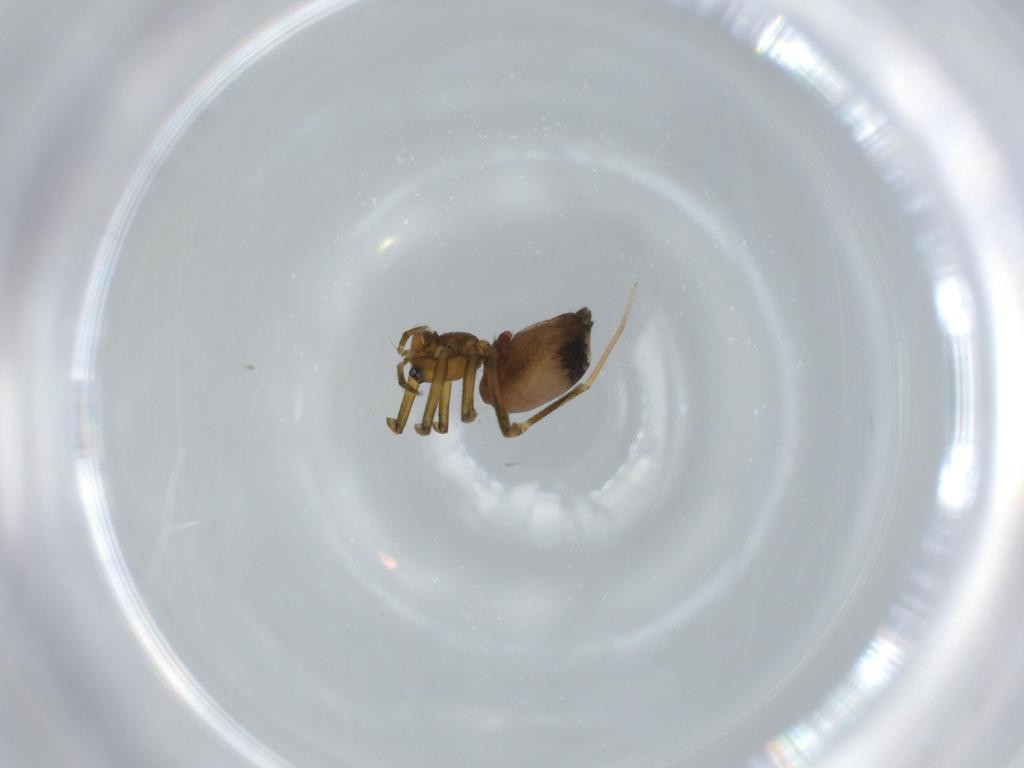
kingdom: Animalia
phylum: Arthropoda
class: Arachnida
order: Araneae
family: Linyphiidae
